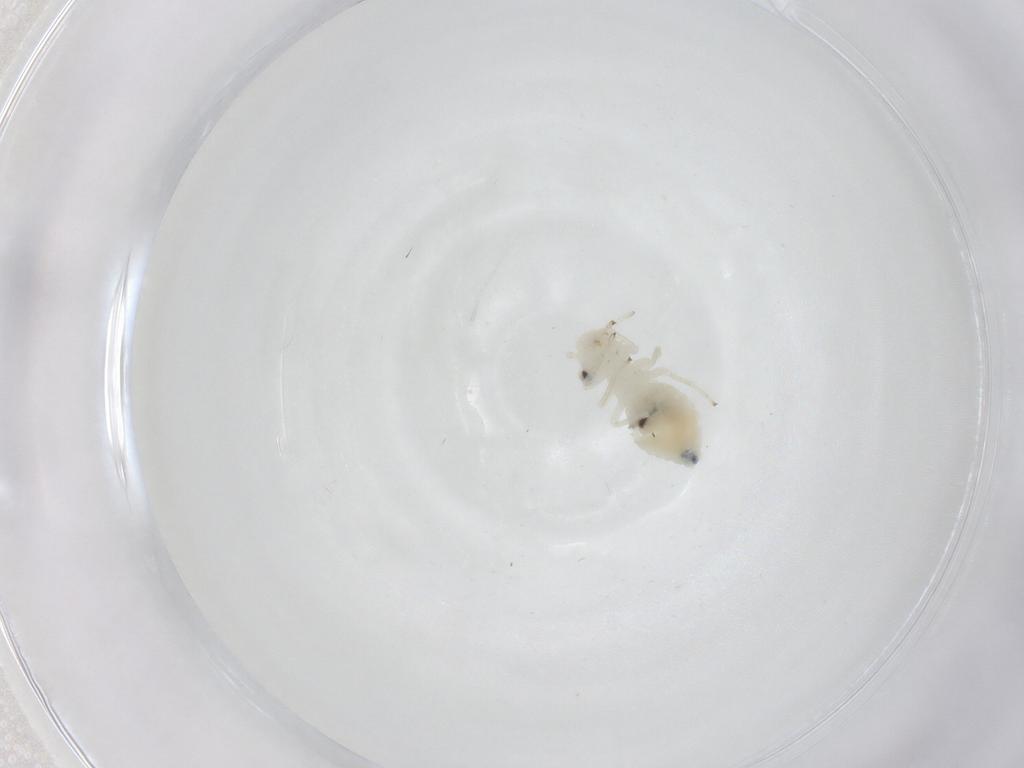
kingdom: Animalia
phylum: Arthropoda
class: Insecta
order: Psocodea
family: Caeciliusidae
